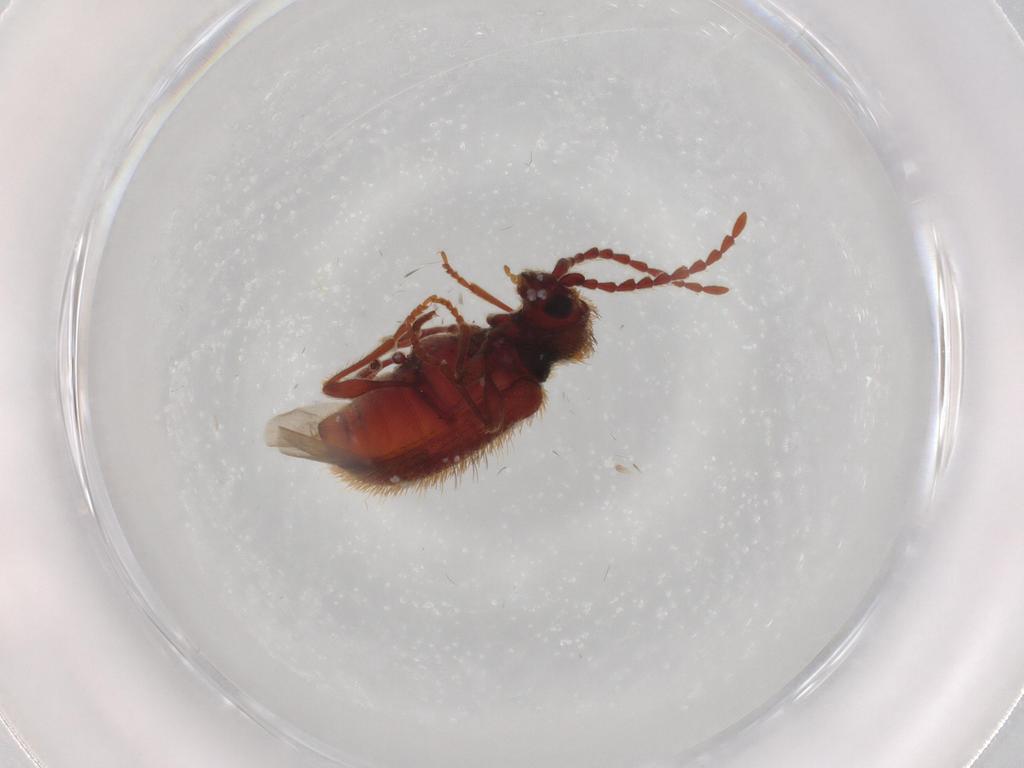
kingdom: Animalia
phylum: Arthropoda
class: Insecta
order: Coleoptera
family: Ptinidae
